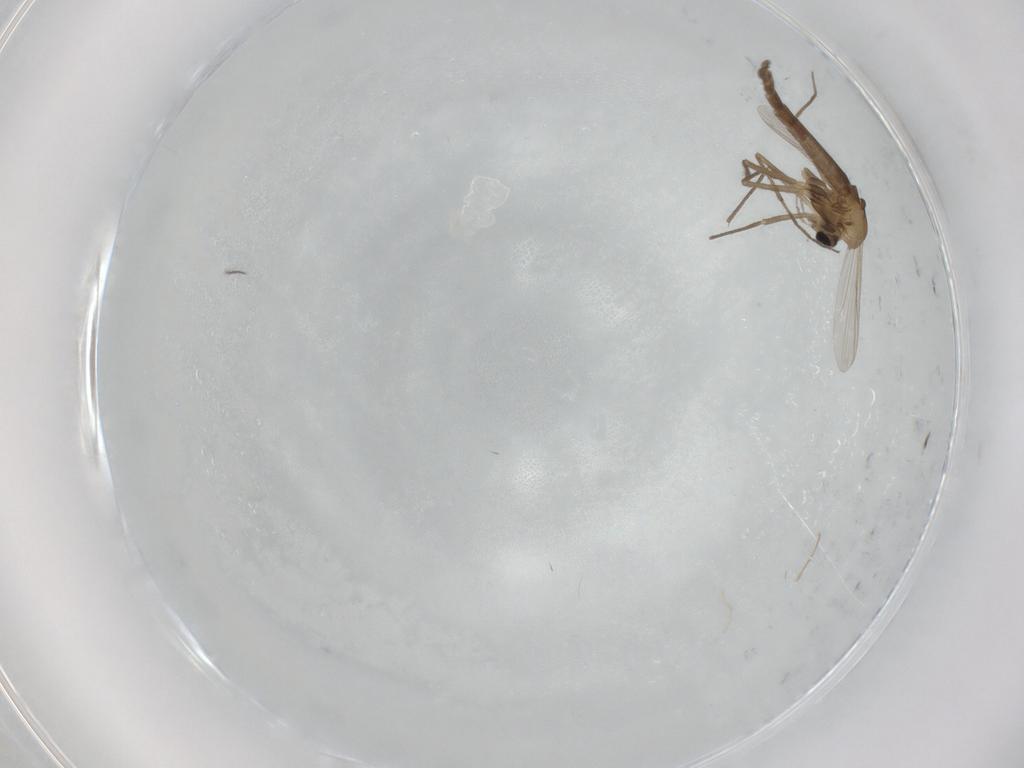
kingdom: Animalia
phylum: Arthropoda
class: Insecta
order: Diptera
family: Chironomidae
